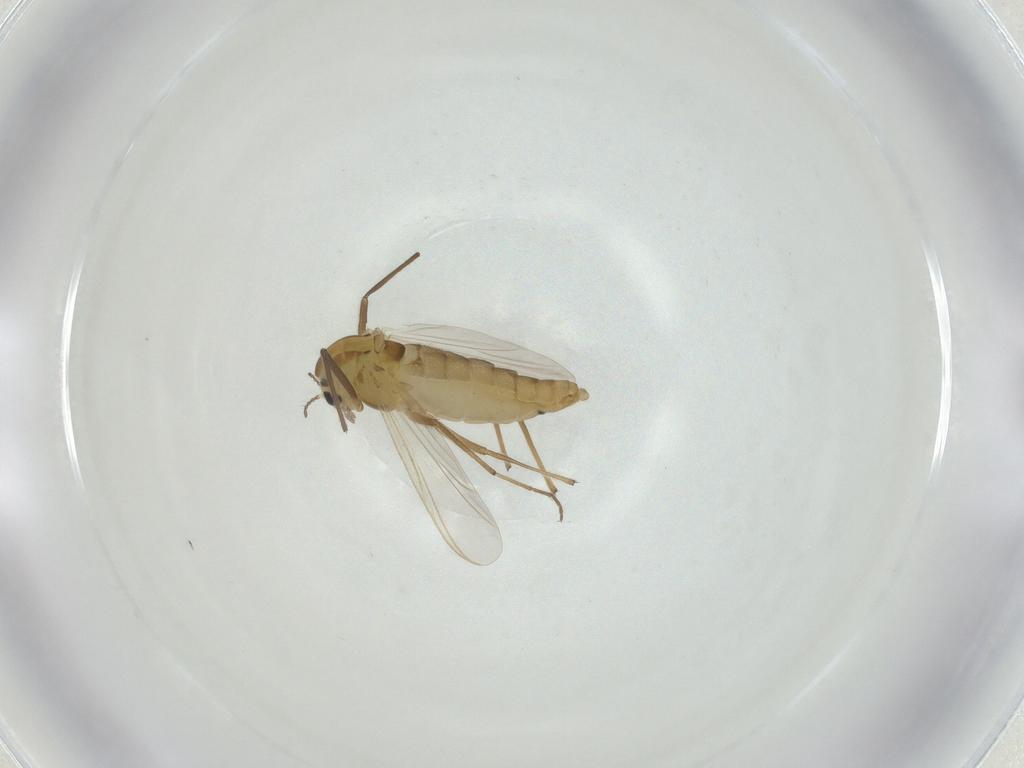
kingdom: Animalia
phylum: Arthropoda
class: Insecta
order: Diptera
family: Chironomidae
